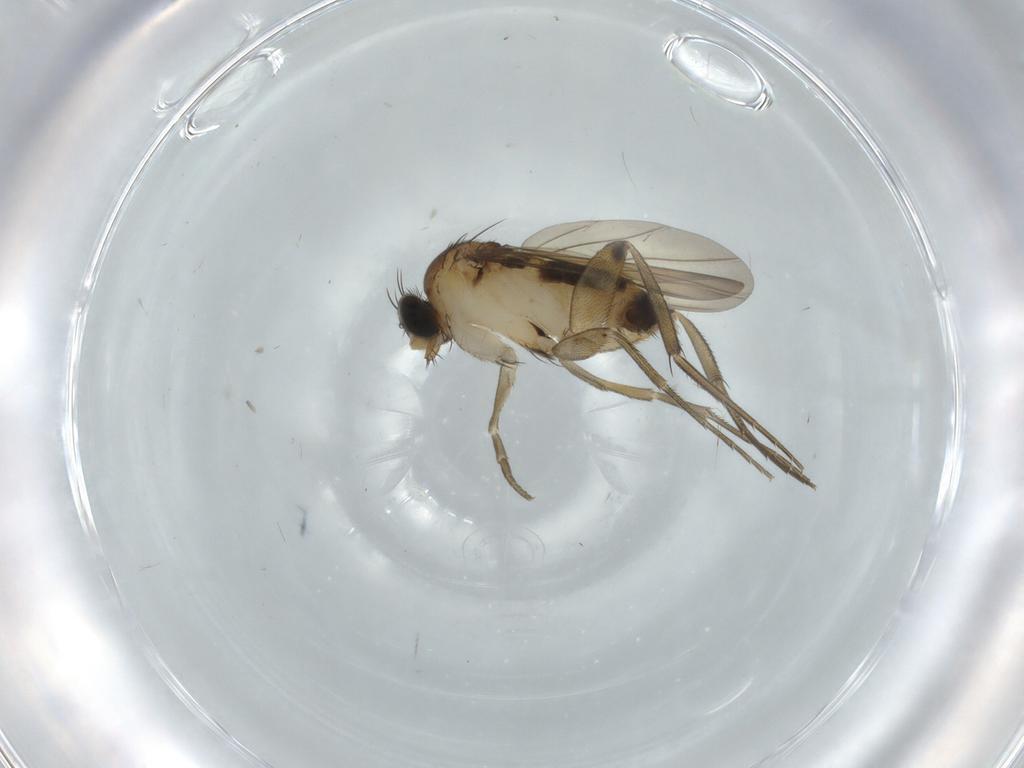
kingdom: Animalia
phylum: Arthropoda
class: Insecta
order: Diptera
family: Phoridae
